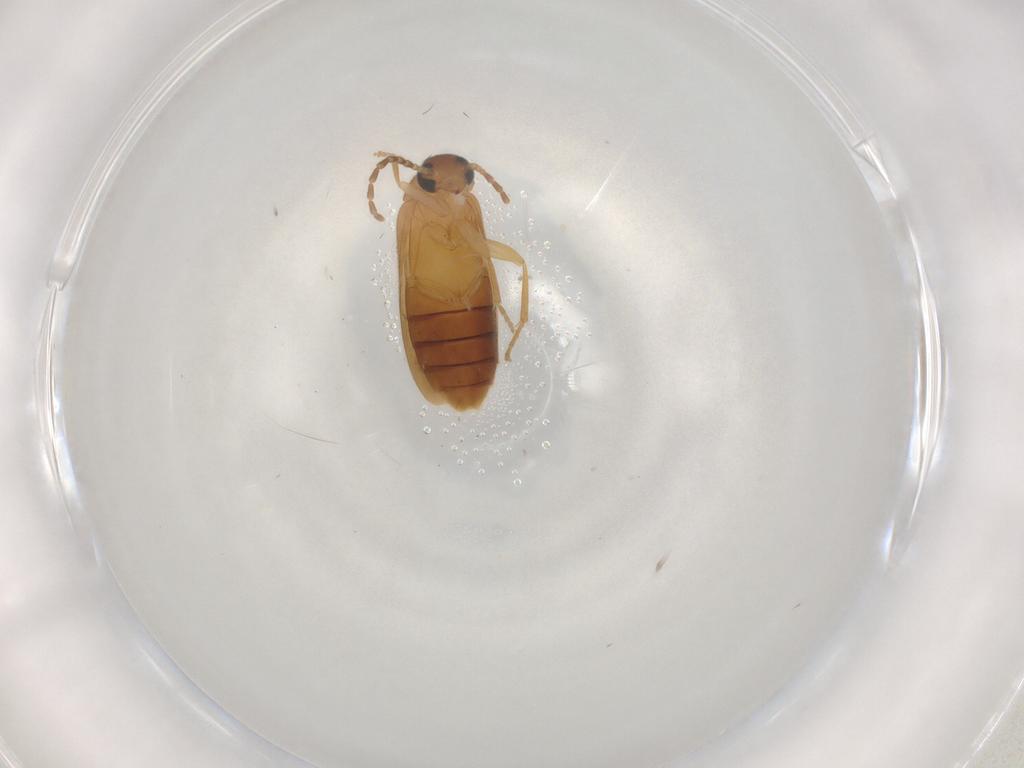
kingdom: Animalia
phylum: Arthropoda
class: Insecta
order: Coleoptera
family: Scraptiidae
